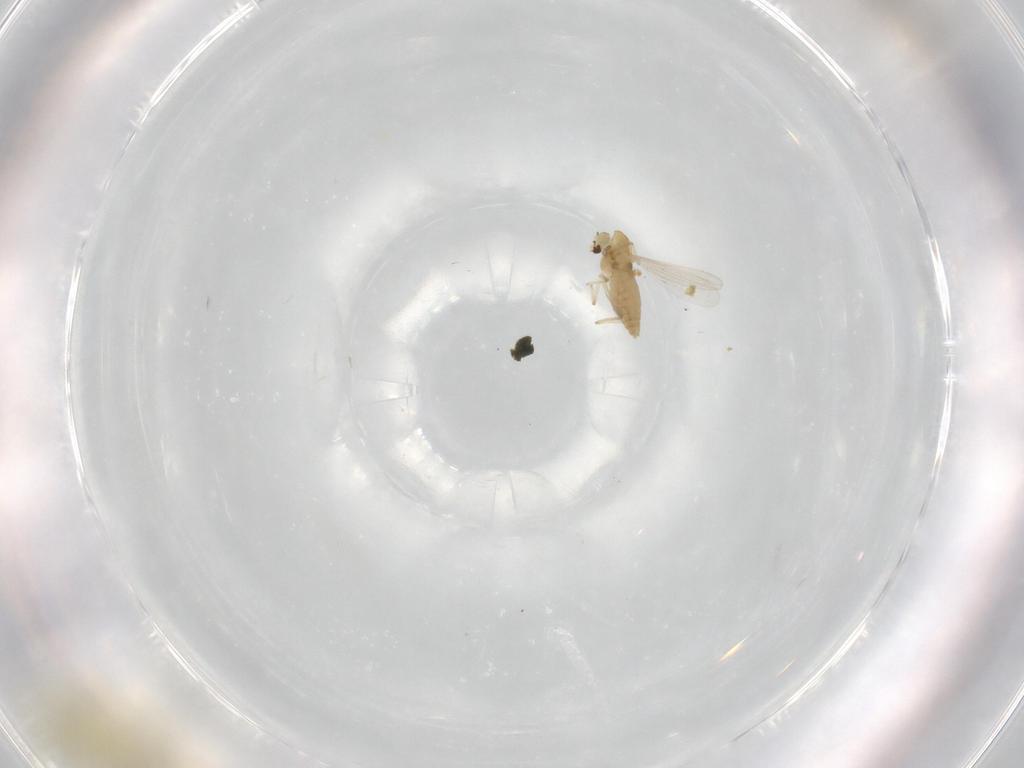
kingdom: Animalia
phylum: Arthropoda
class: Insecta
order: Diptera
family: Chironomidae
